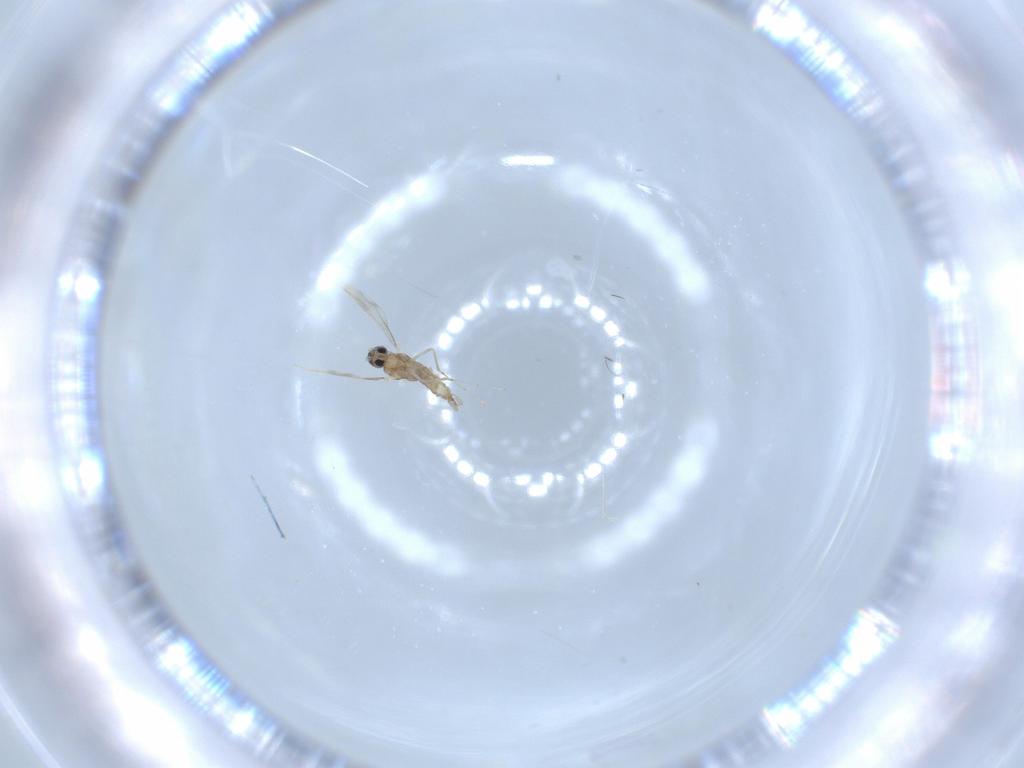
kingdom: Animalia
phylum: Arthropoda
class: Insecta
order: Diptera
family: Cecidomyiidae
